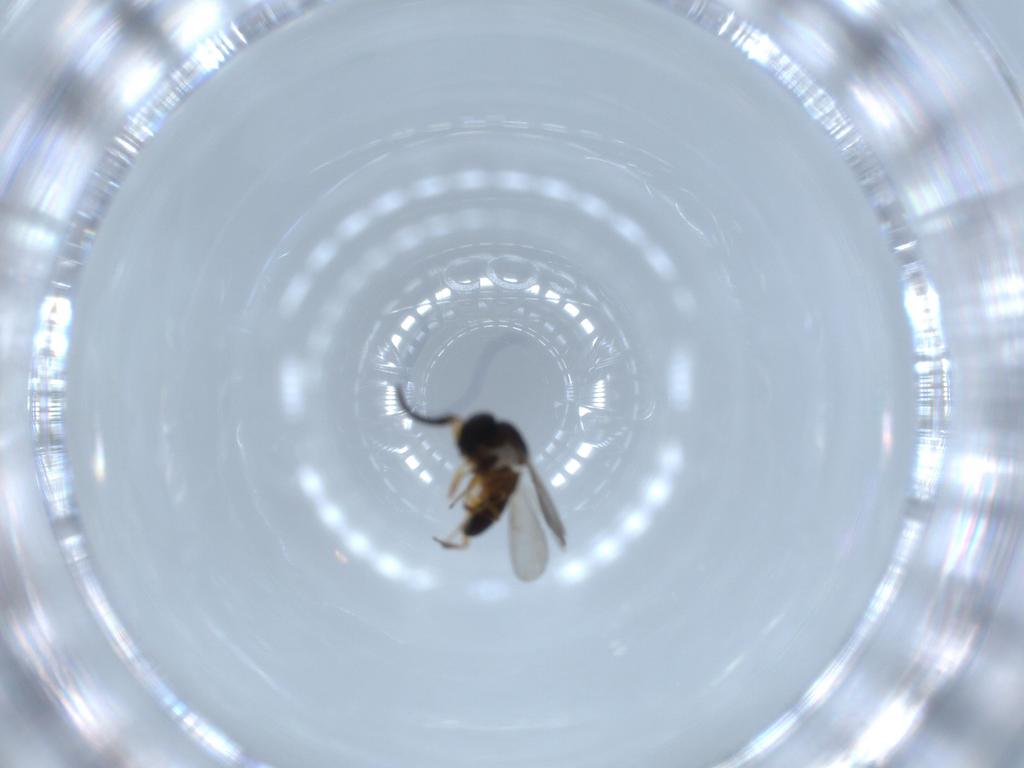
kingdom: Animalia
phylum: Arthropoda
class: Insecta
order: Hymenoptera
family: Scelionidae
